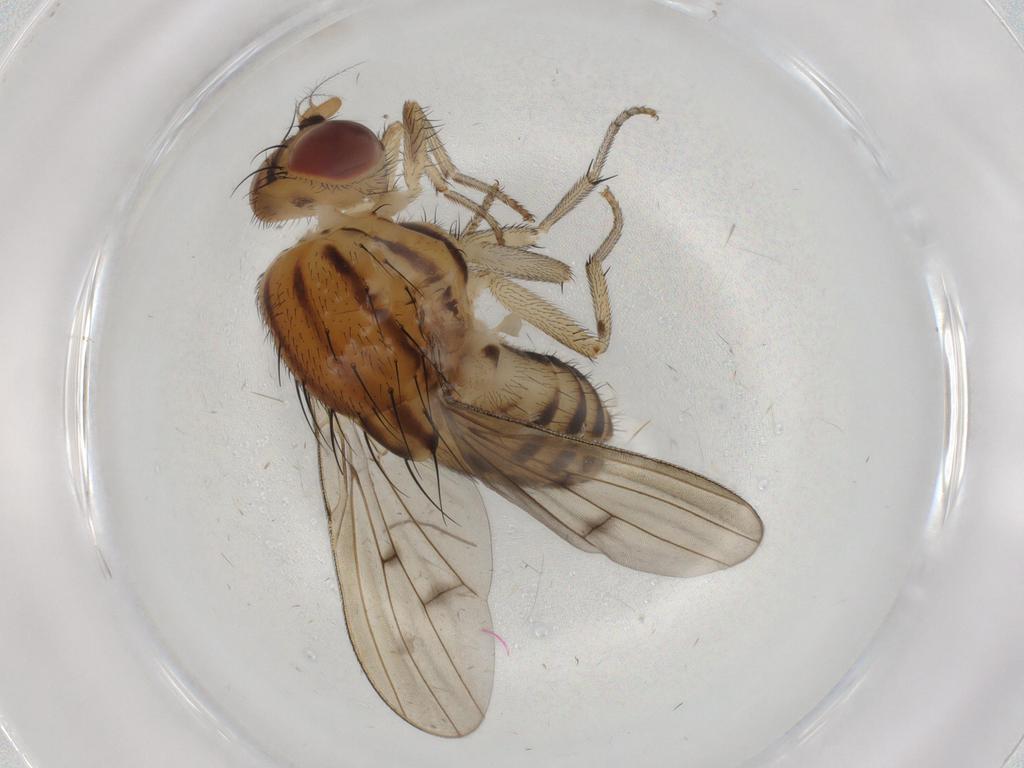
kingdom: Animalia
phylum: Arthropoda
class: Insecta
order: Diptera
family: Lauxaniidae
